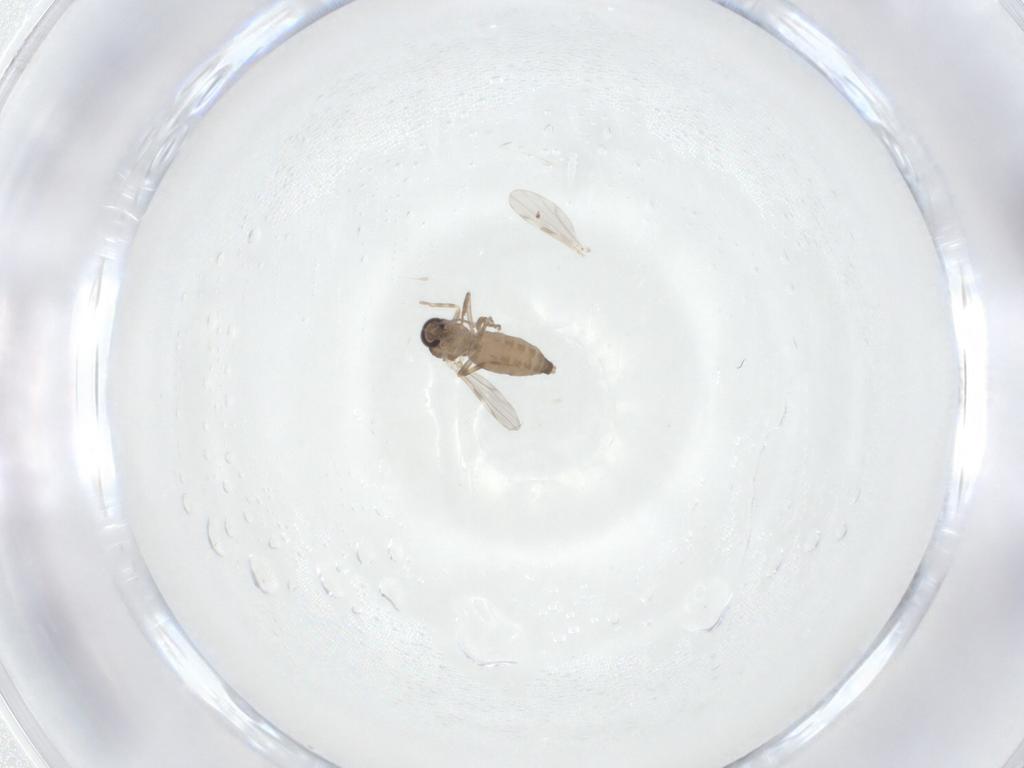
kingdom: Animalia
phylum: Arthropoda
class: Insecta
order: Diptera
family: Ceratopogonidae
